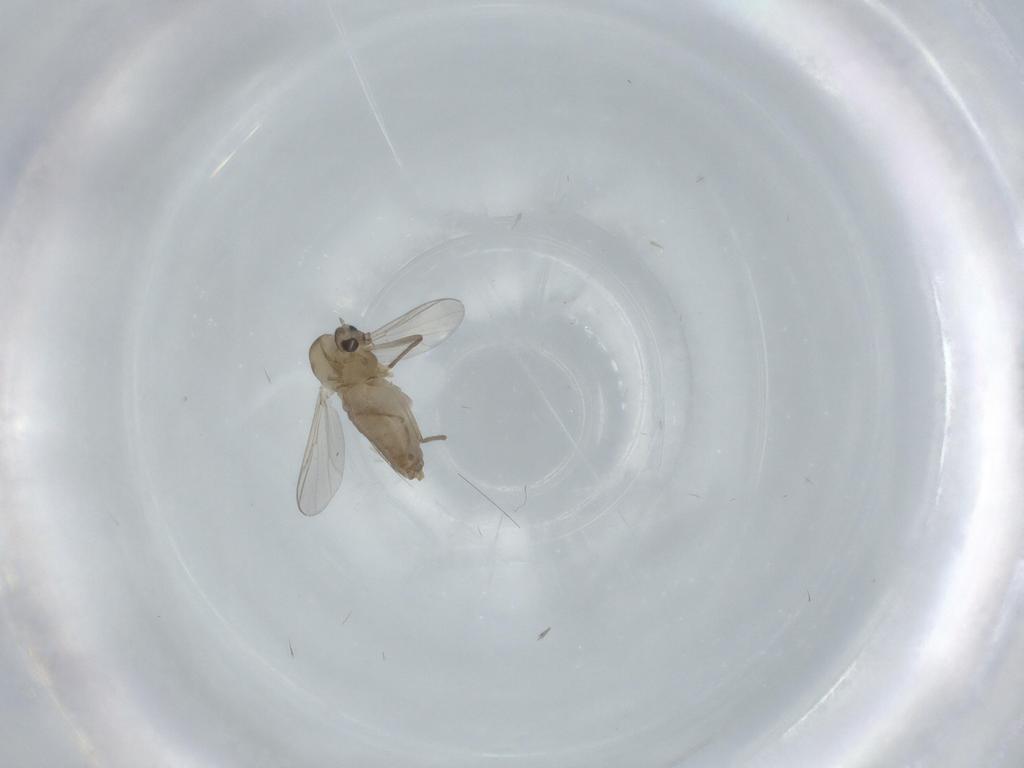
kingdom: Animalia
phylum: Arthropoda
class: Insecta
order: Diptera
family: Chironomidae
